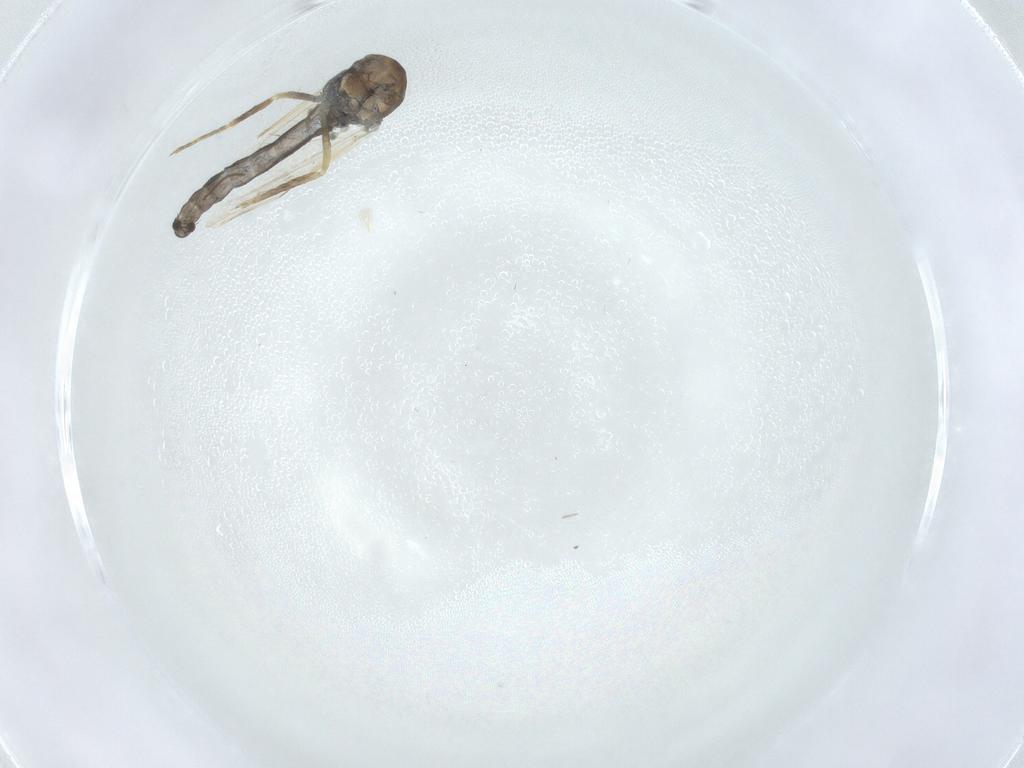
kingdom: Animalia
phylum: Arthropoda
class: Insecta
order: Diptera
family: Ceratopogonidae
